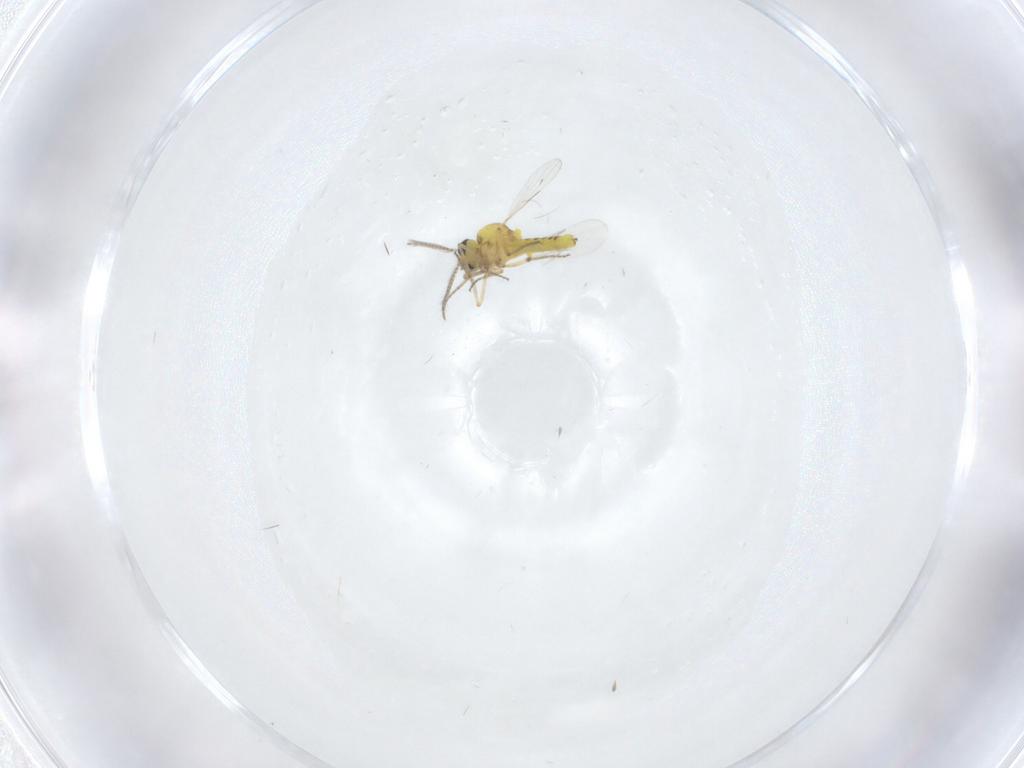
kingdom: Animalia
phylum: Arthropoda
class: Insecta
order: Diptera
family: Ceratopogonidae
